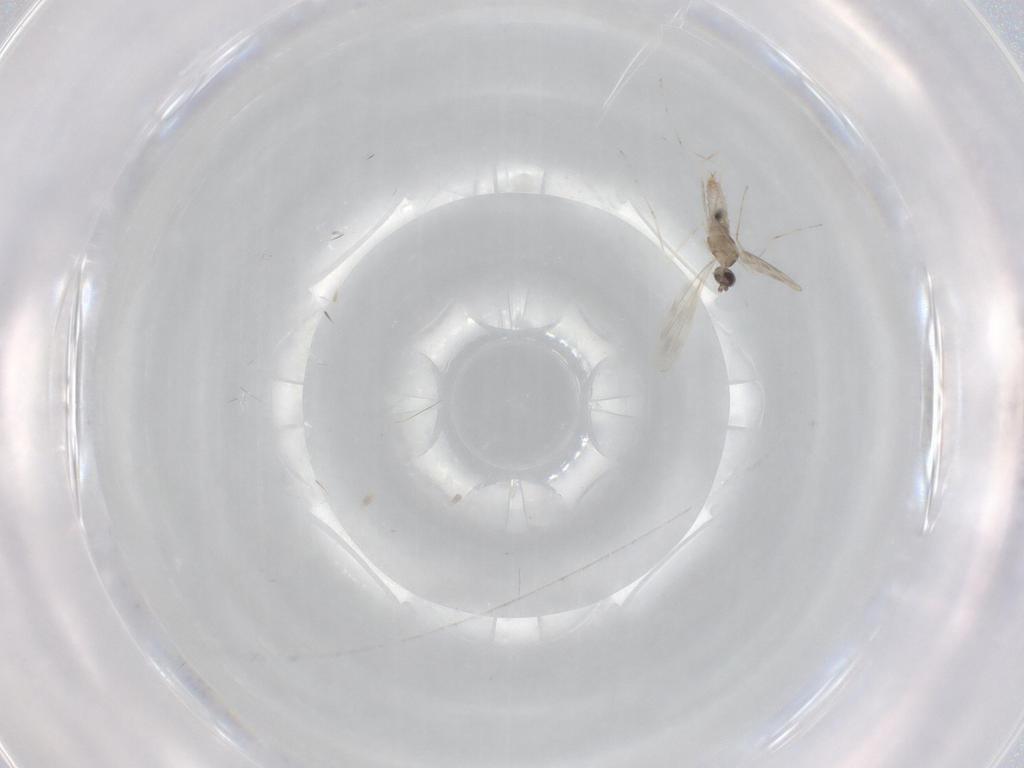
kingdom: Animalia
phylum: Arthropoda
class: Insecta
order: Diptera
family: Cecidomyiidae
